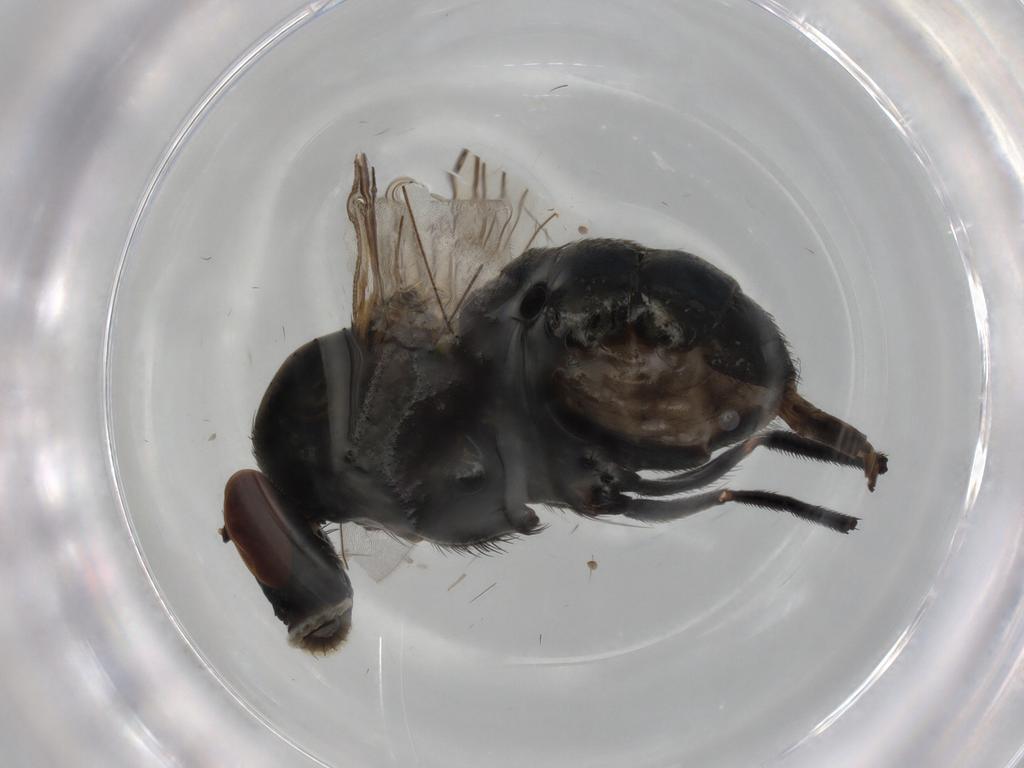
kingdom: Animalia
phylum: Arthropoda
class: Insecta
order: Diptera
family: Dolichopodidae
